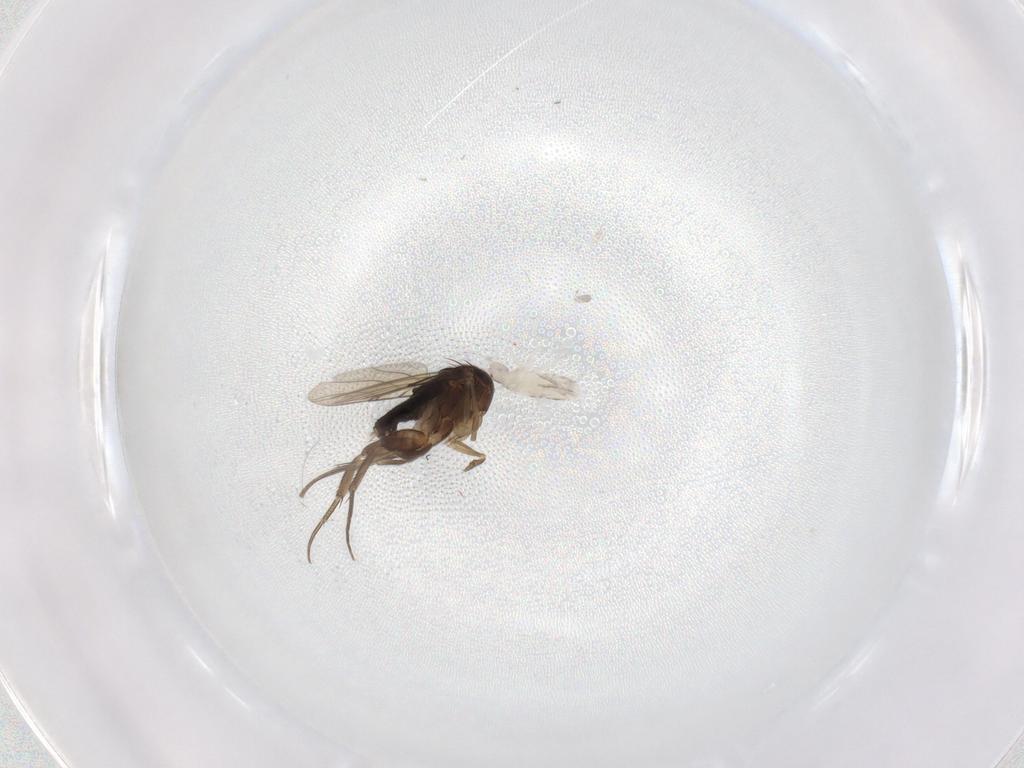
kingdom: Animalia
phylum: Arthropoda
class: Insecta
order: Diptera
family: Phoridae
